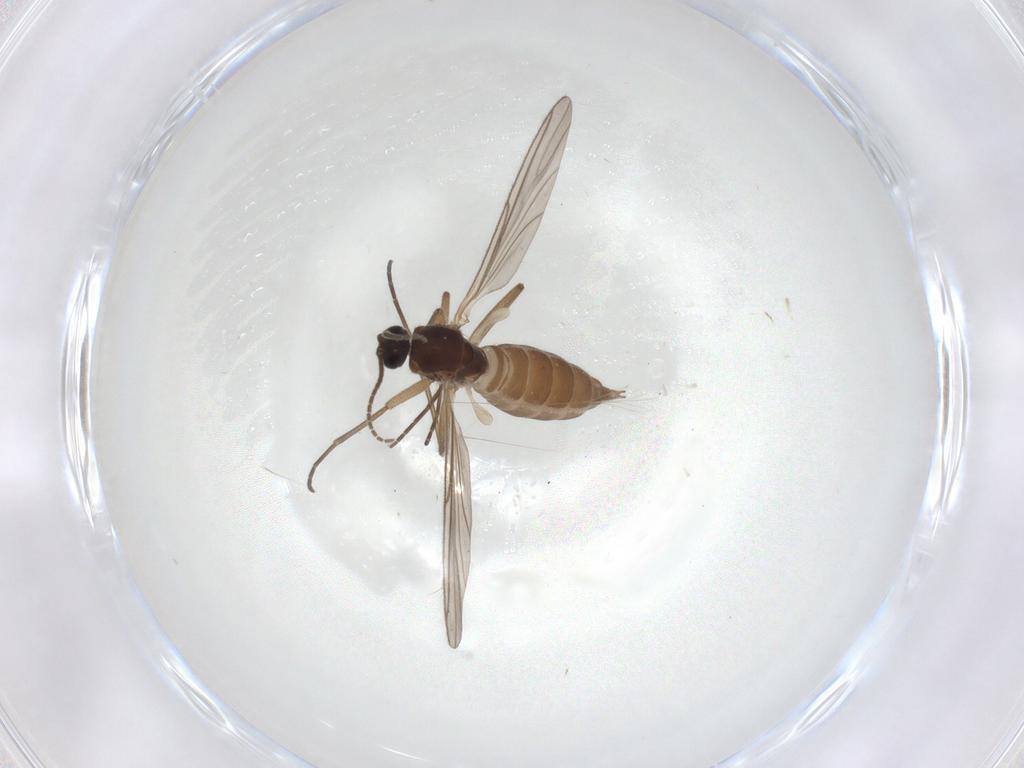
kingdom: Animalia
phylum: Arthropoda
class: Insecta
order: Diptera
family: Sciaridae
